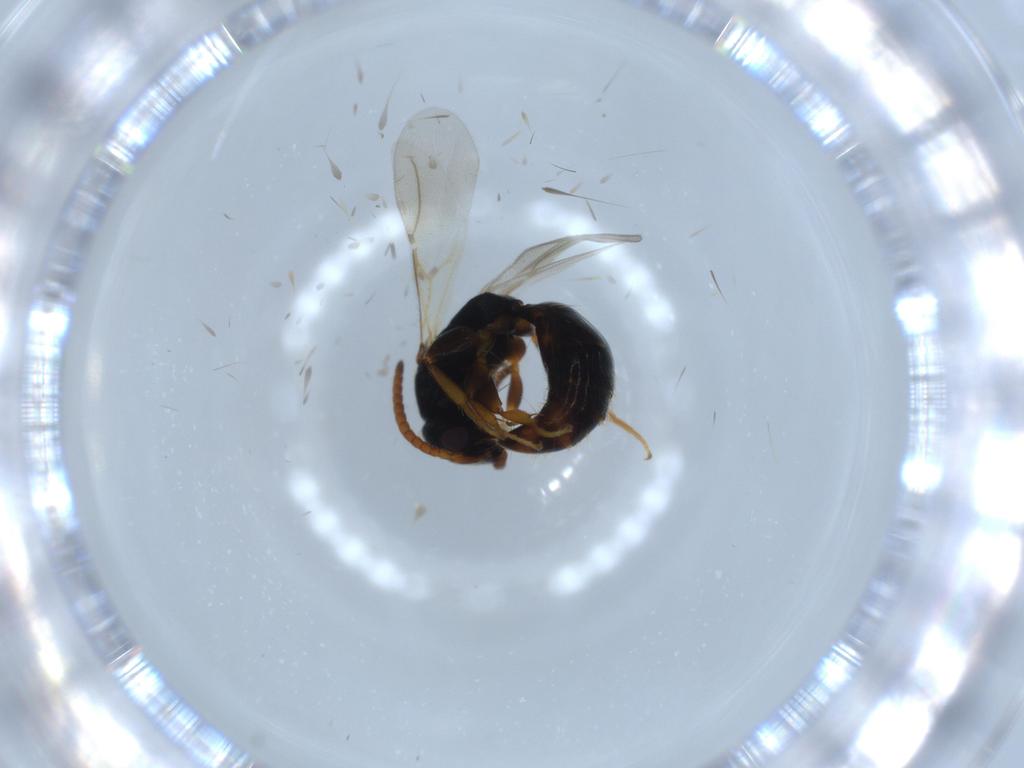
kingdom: Animalia
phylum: Arthropoda
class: Insecta
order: Hymenoptera
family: Bethylidae
